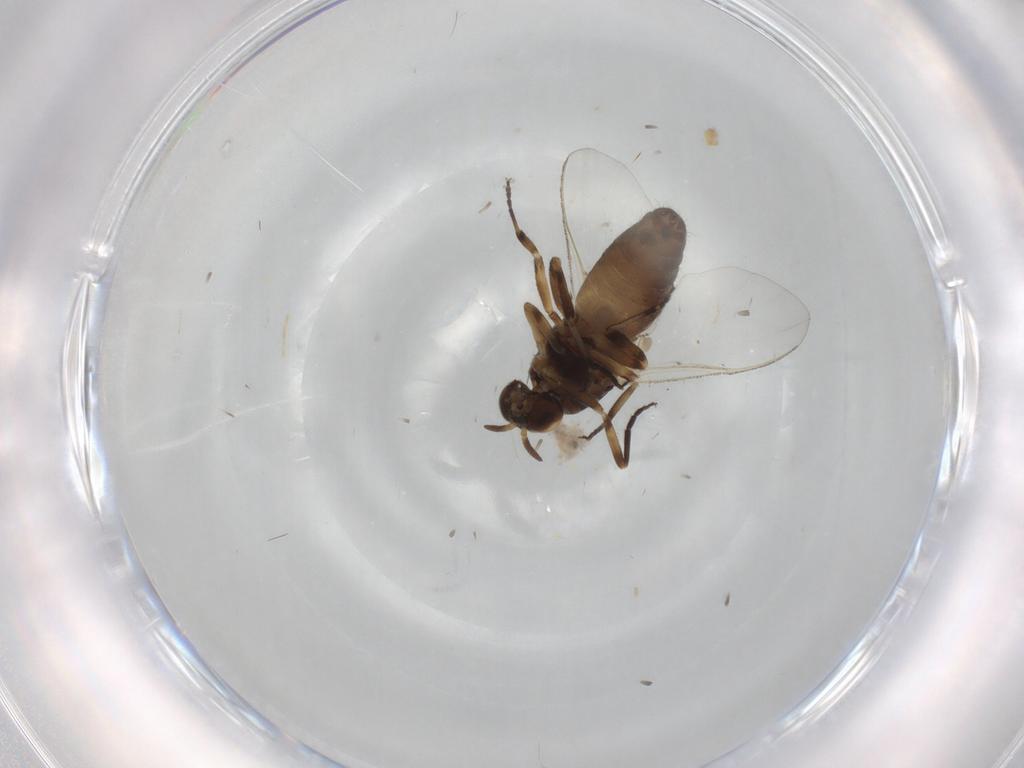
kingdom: Animalia
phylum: Arthropoda
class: Insecta
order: Diptera
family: Simuliidae
